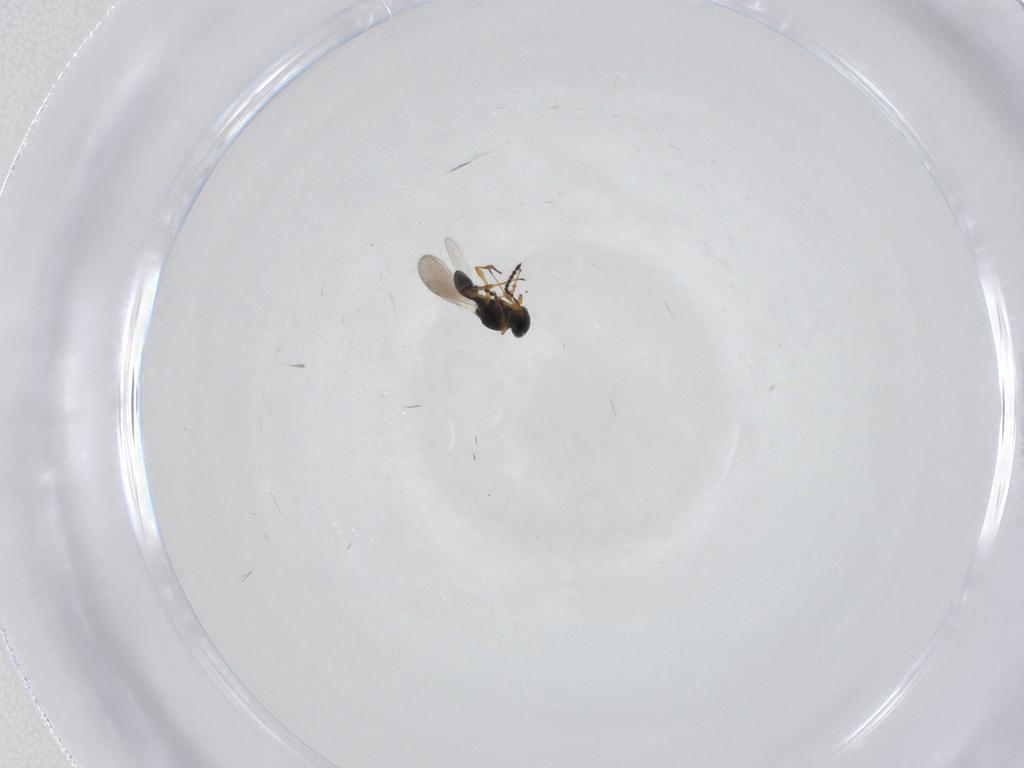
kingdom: Animalia
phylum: Arthropoda
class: Insecta
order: Hymenoptera
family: Platygastridae
